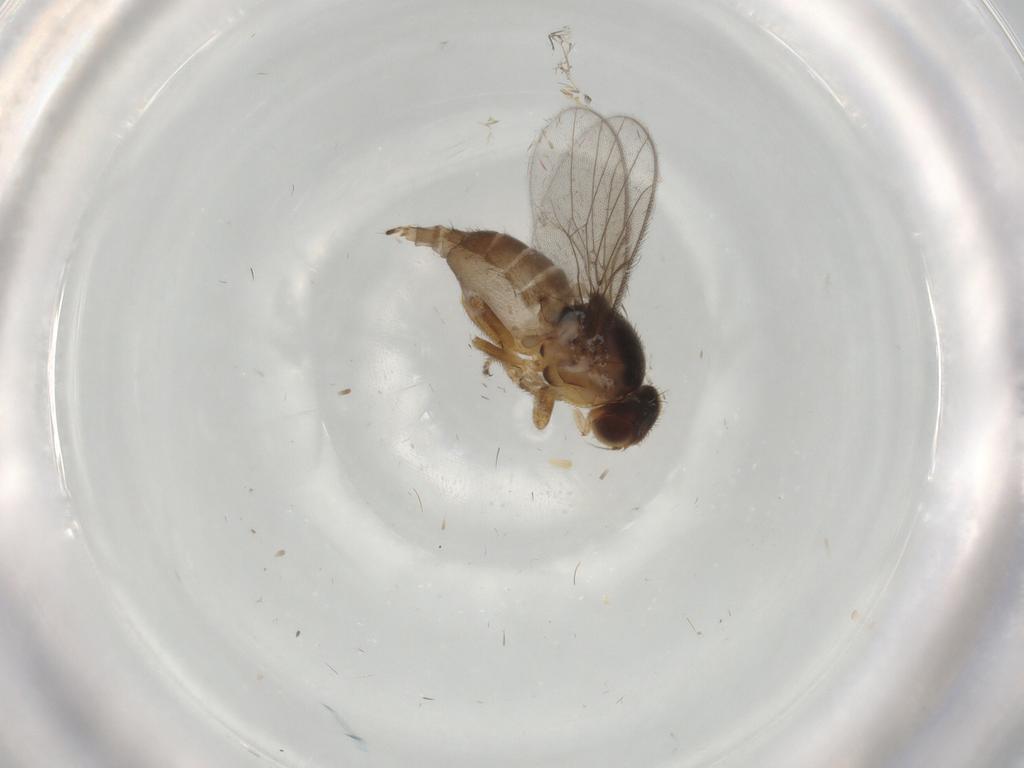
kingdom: Animalia
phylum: Arthropoda
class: Insecta
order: Diptera
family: Chloropidae
